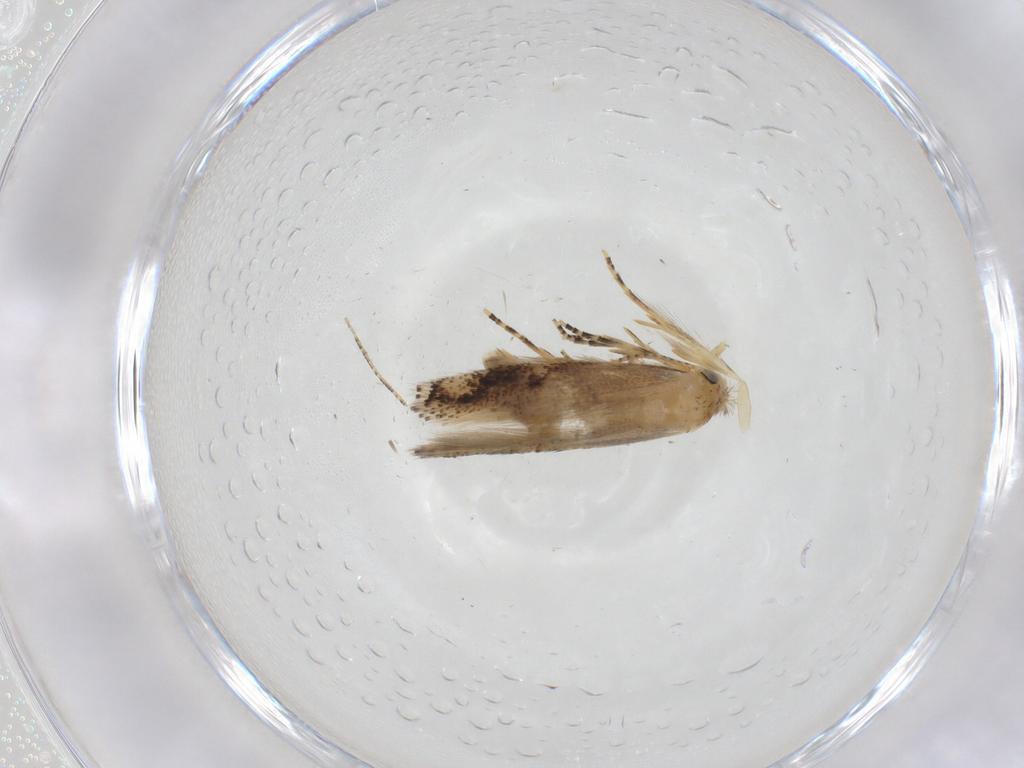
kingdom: Animalia
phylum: Arthropoda
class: Insecta
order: Lepidoptera
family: Bucculatricidae
